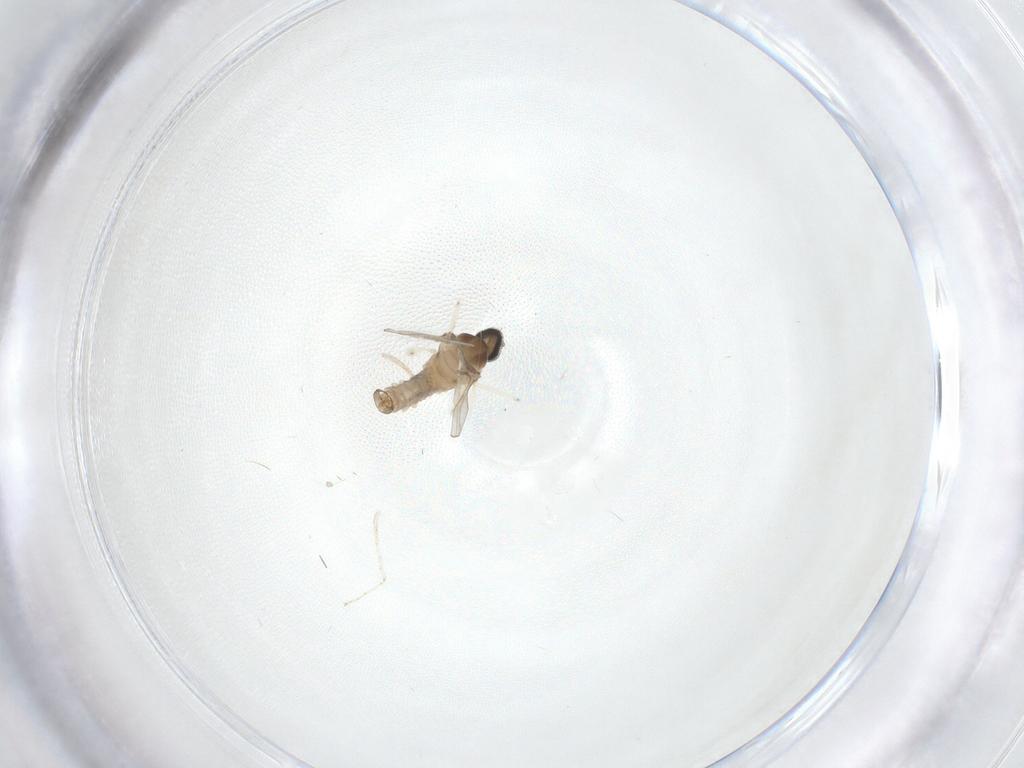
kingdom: Animalia
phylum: Arthropoda
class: Insecta
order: Diptera
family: Cecidomyiidae
